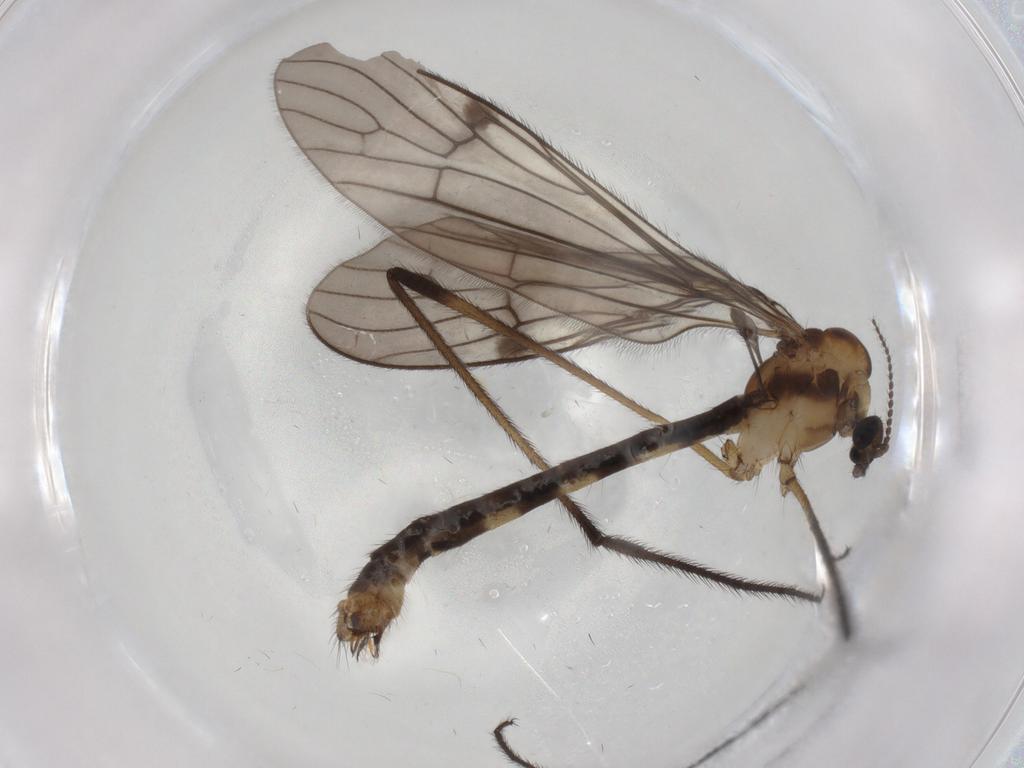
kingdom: Animalia
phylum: Arthropoda
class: Insecta
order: Diptera
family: Limoniidae
